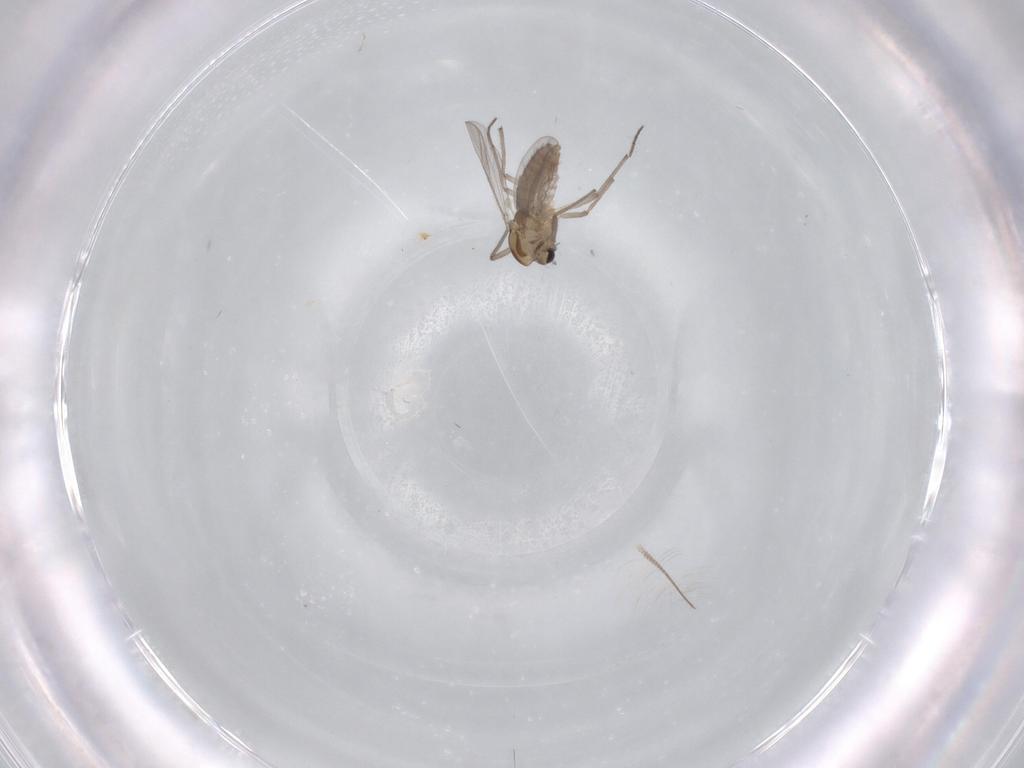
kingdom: Animalia
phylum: Arthropoda
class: Insecta
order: Diptera
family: Chironomidae
